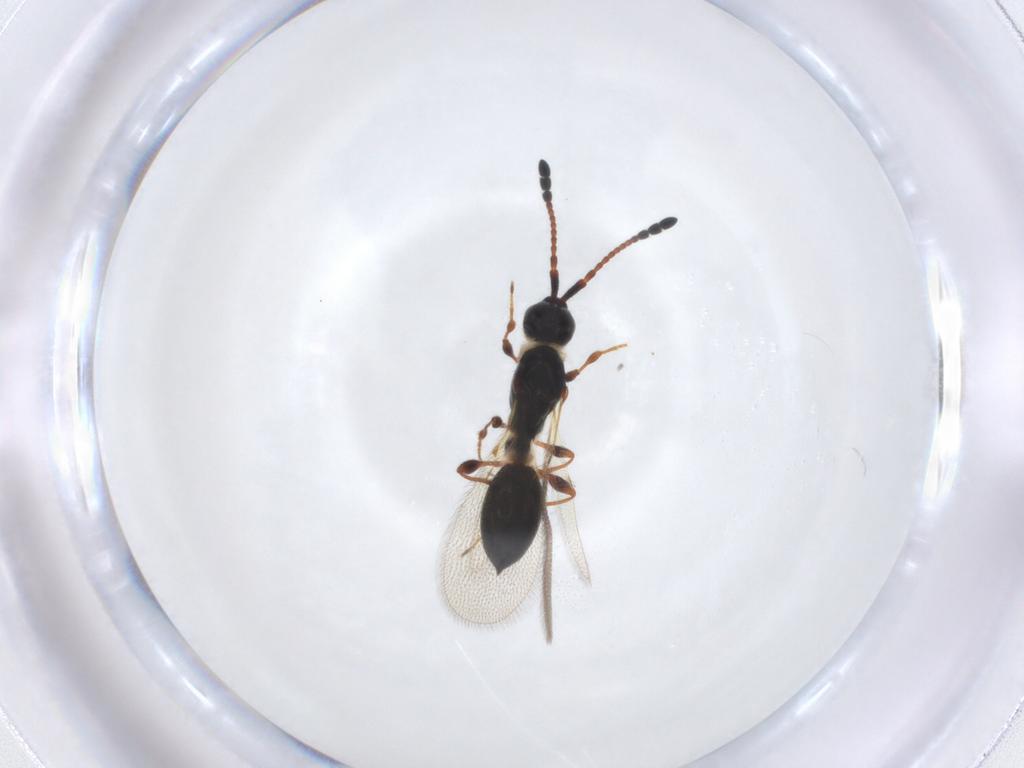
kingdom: Animalia
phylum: Arthropoda
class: Insecta
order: Hymenoptera
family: Diapriidae
